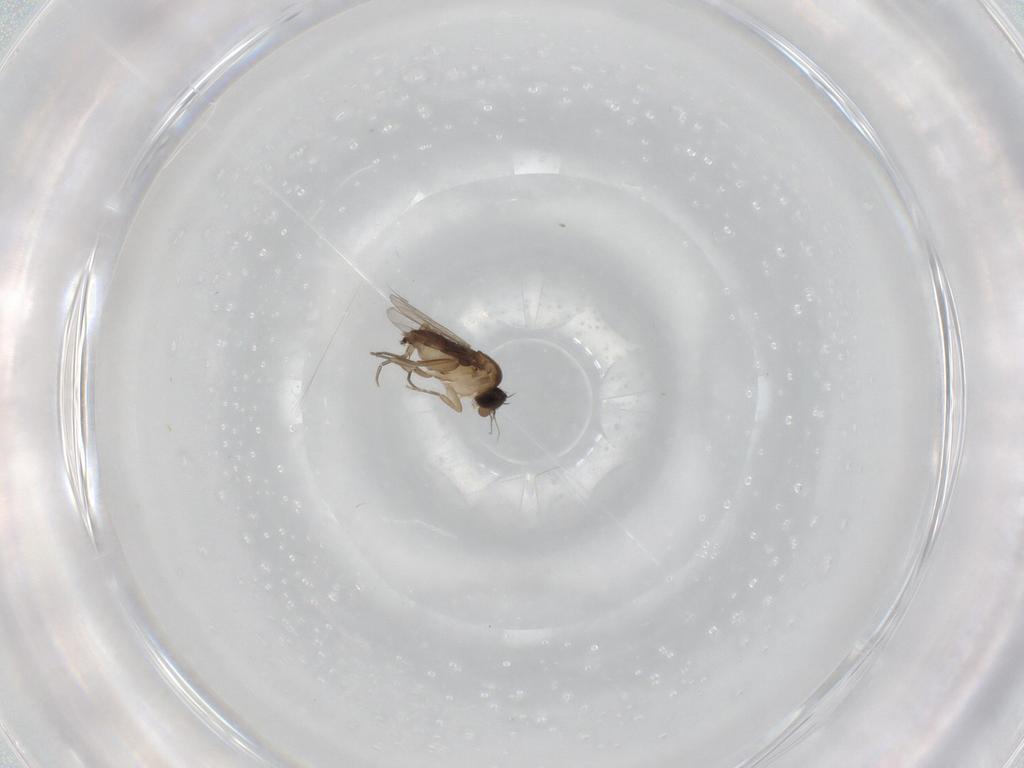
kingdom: Animalia
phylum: Arthropoda
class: Insecta
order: Diptera
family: Phoridae
